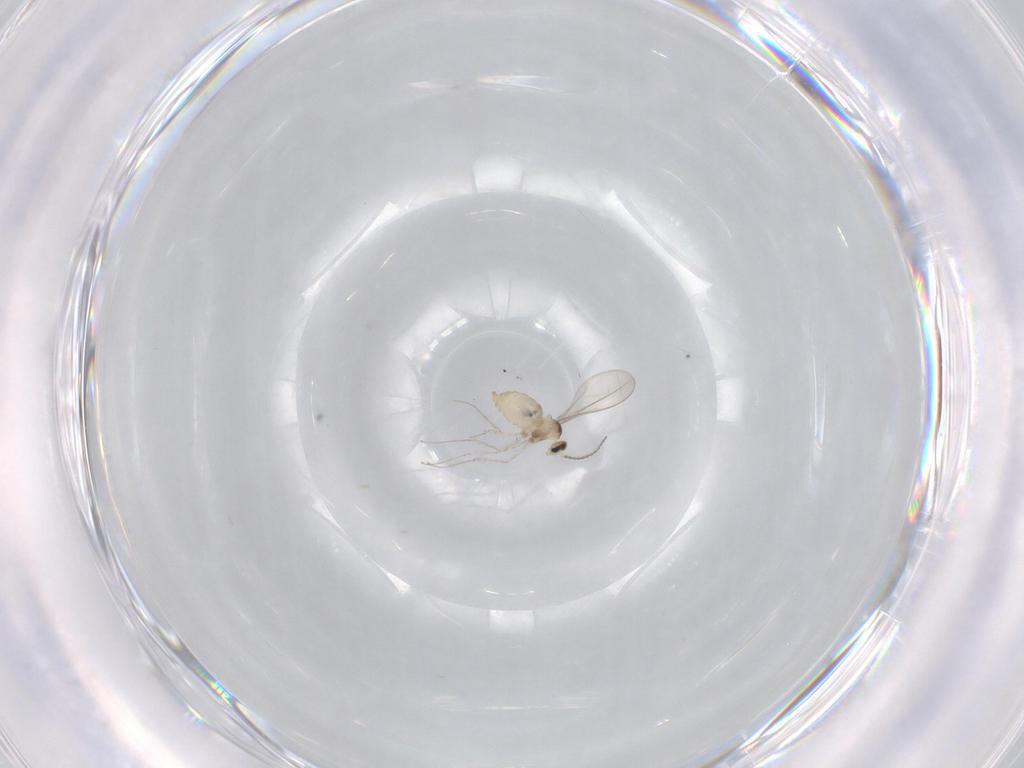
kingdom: Animalia
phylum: Arthropoda
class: Insecta
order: Diptera
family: Cecidomyiidae
